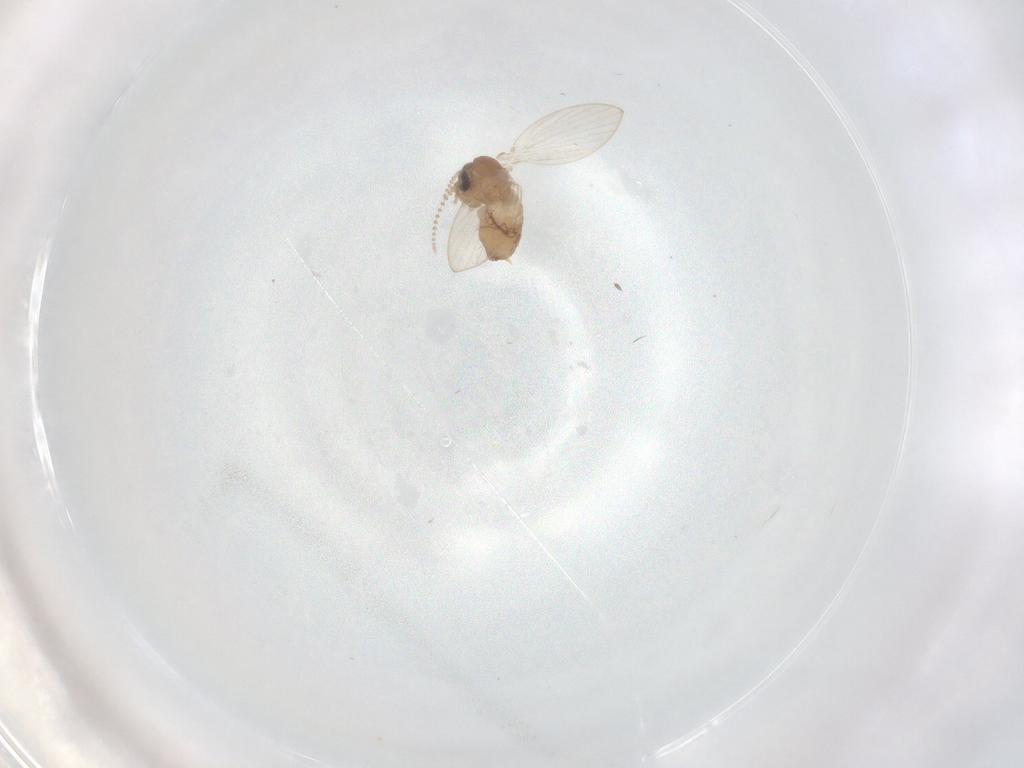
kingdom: Animalia
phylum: Arthropoda
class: Insecta
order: Diptera
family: Psychodidae
